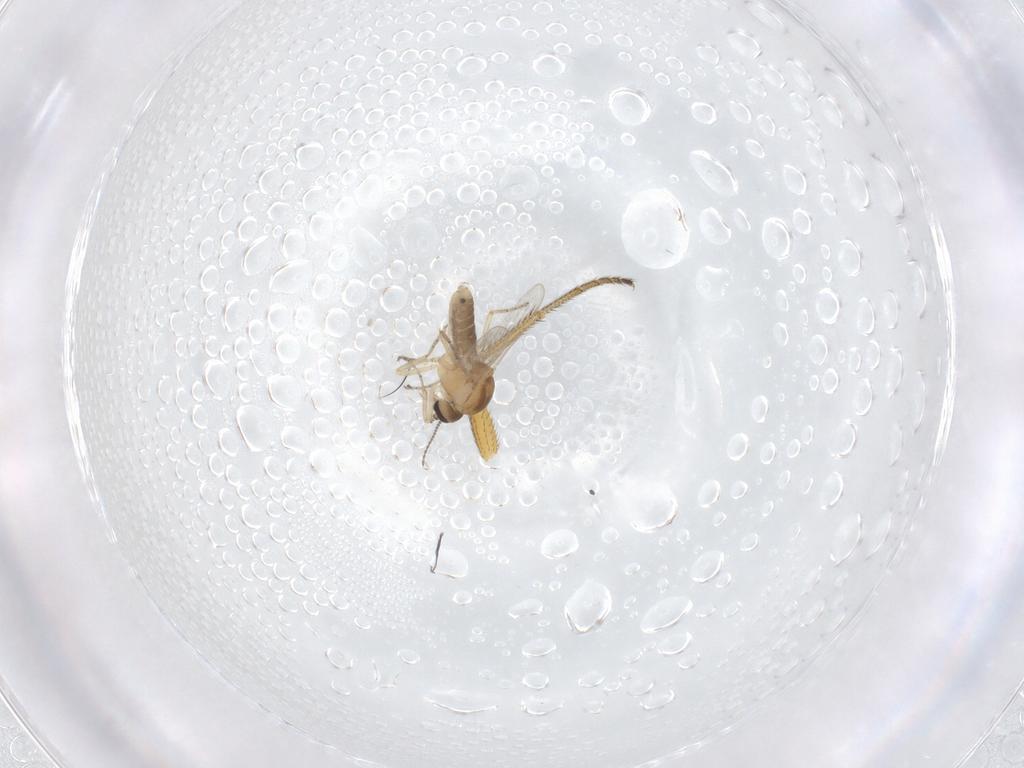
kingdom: Animalia
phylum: Arthropoda
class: Insecta
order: Diptera
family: Dolichopodidae
